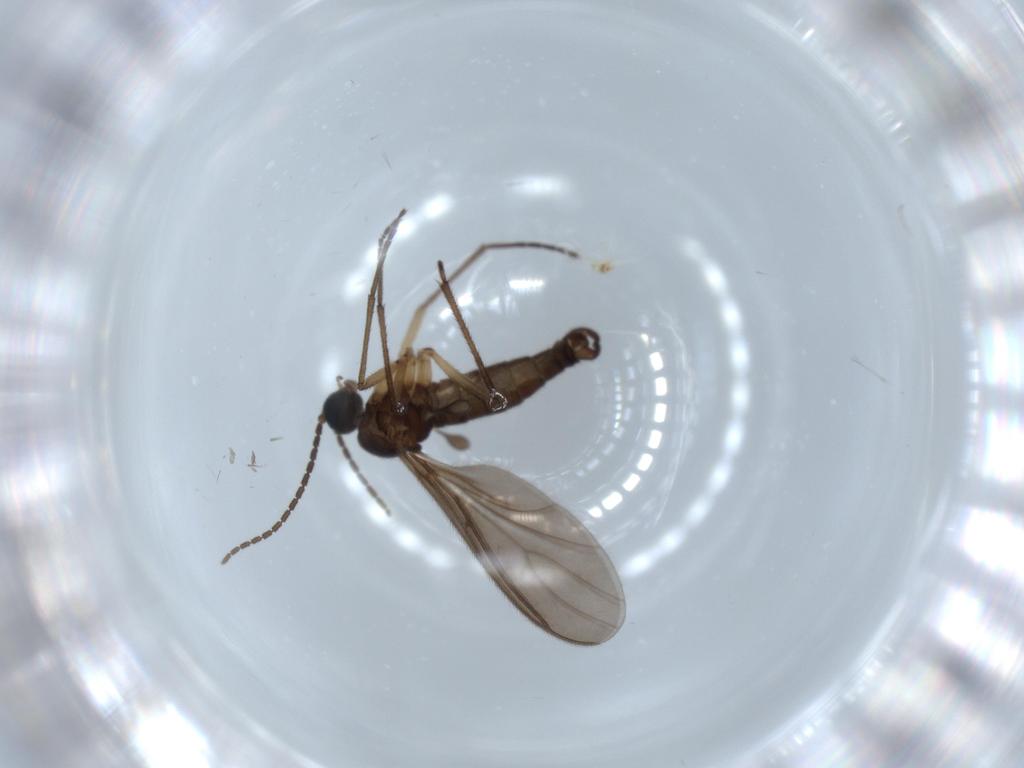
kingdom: Animalia
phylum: Arthropoda
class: Insecta
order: Diptera
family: Sciaridae
